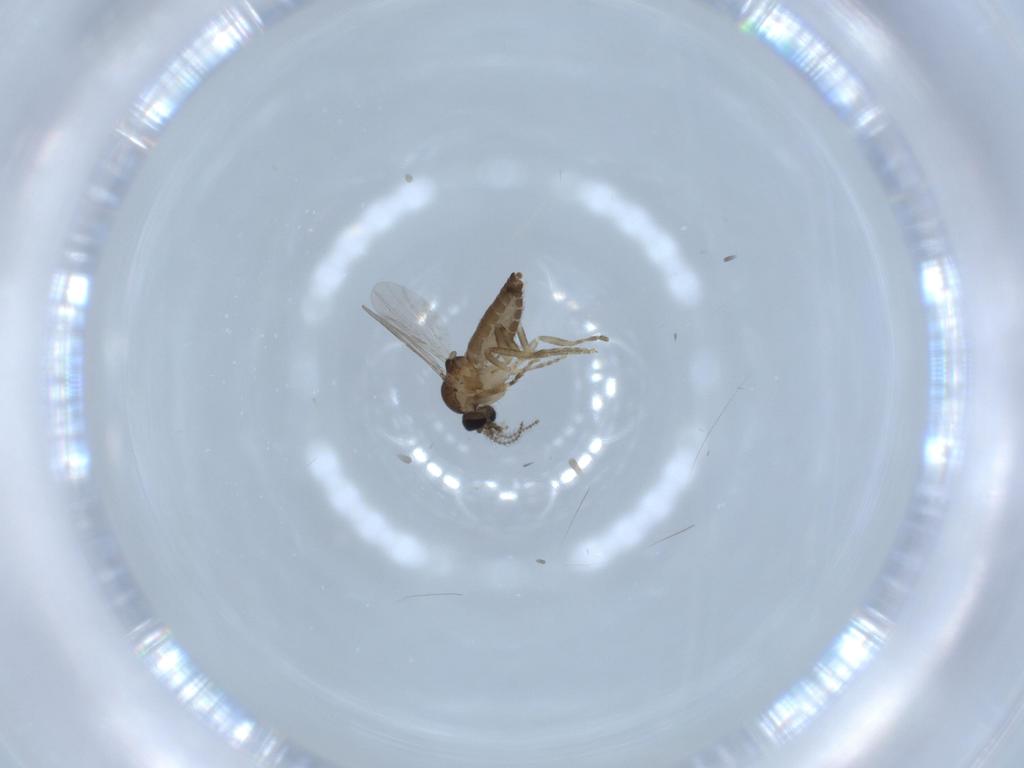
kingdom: Animalia
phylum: Arthropoda
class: Insecta
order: Diptera
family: Ceratopogonidae
